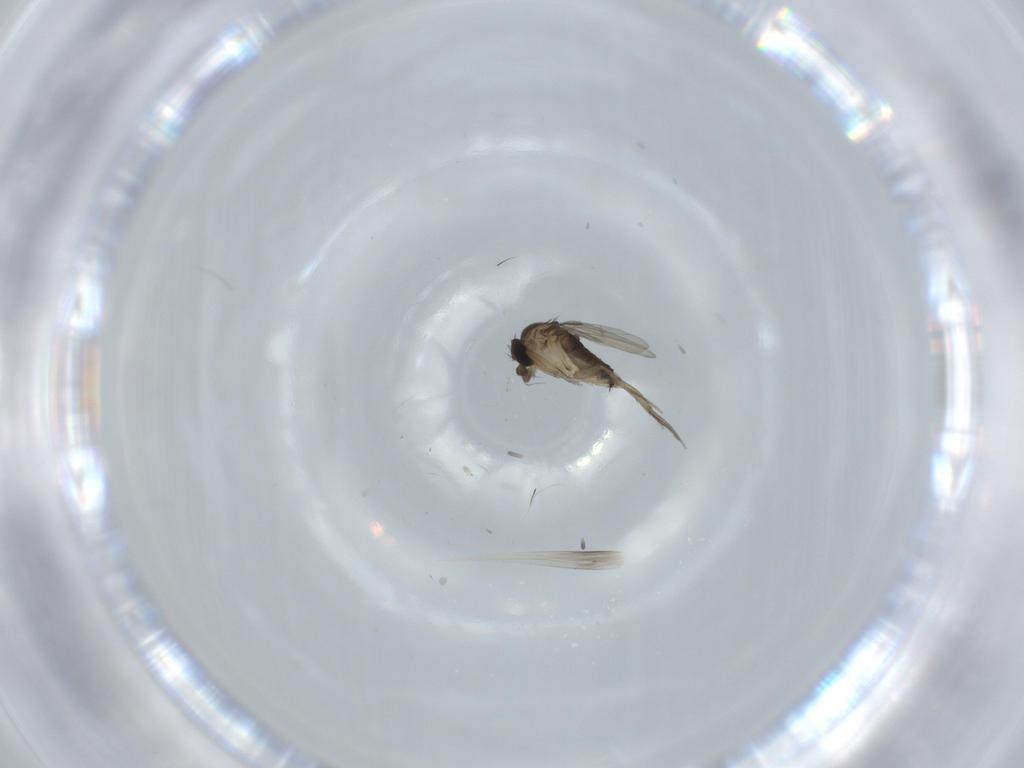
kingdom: Animalia
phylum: Arthropoda
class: Insecta
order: Diptera
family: Phoridae
